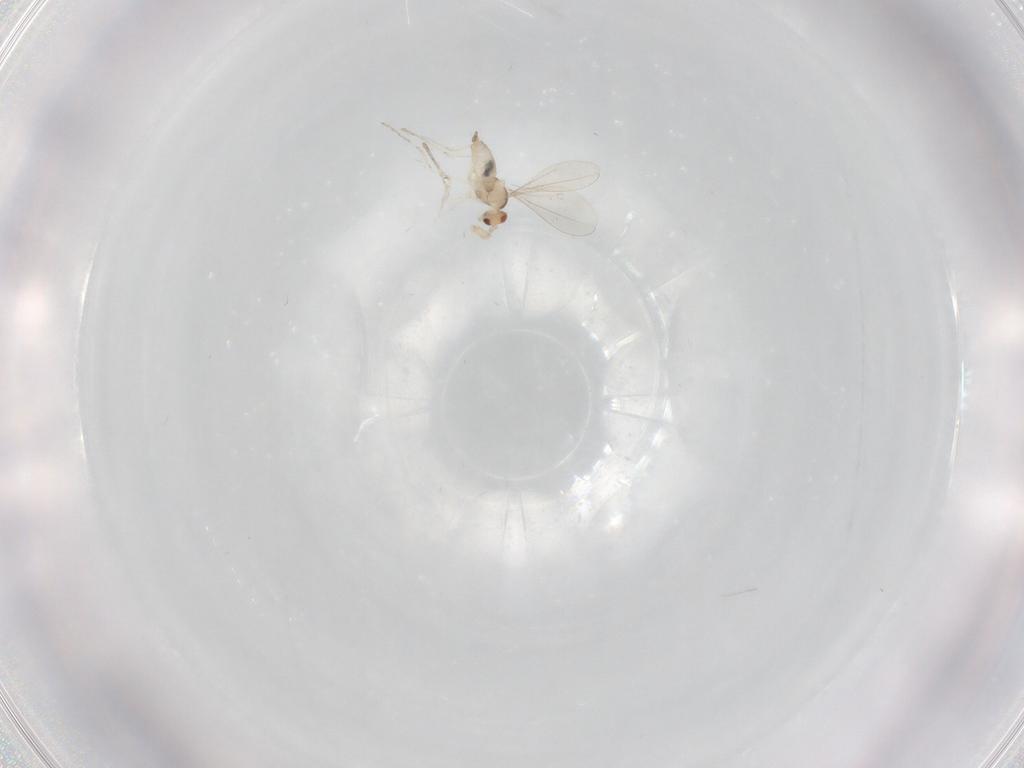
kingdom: Animalia
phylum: Arthropoda
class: Insecta
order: Diptera
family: Cecidomyiidae
